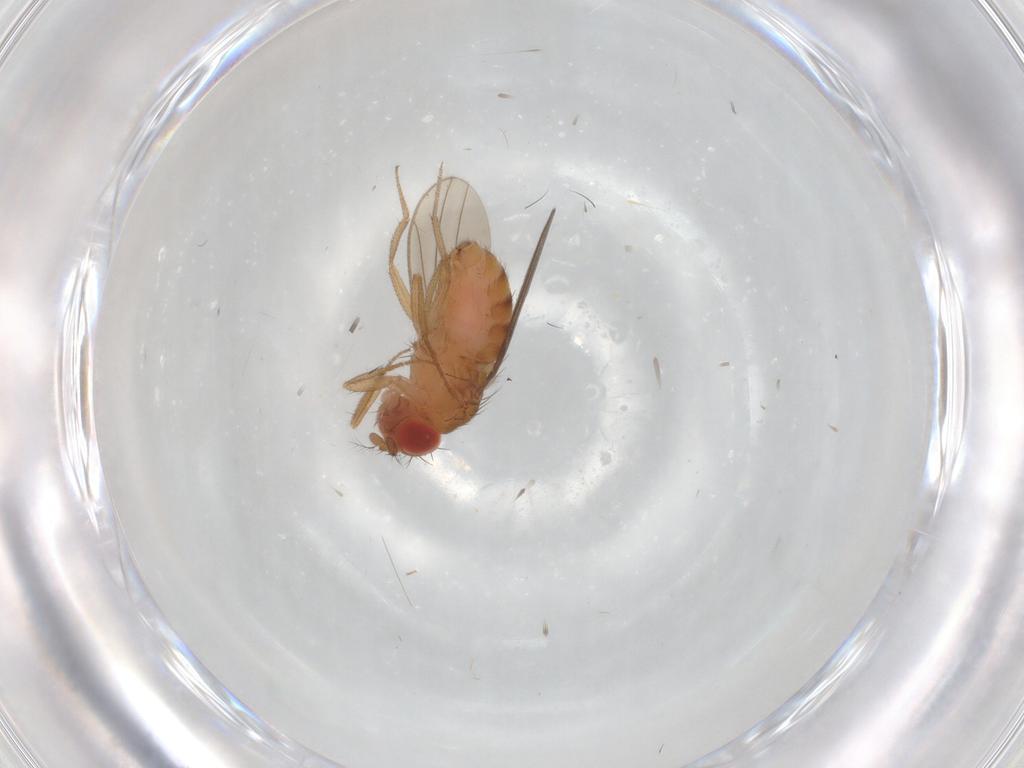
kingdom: Animalia
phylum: Arthropoda
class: Insecta
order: Diptera
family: Drosophilidae
